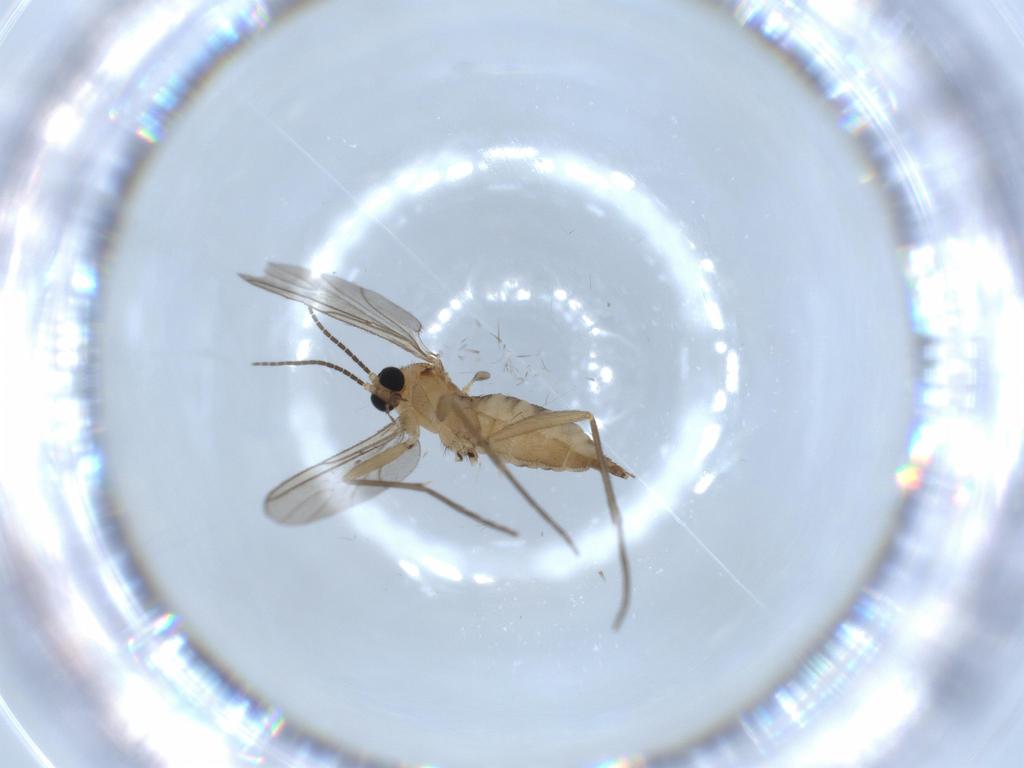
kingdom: Animalia
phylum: Arthropoda
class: Insecta
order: Diptera
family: Sciaridae
